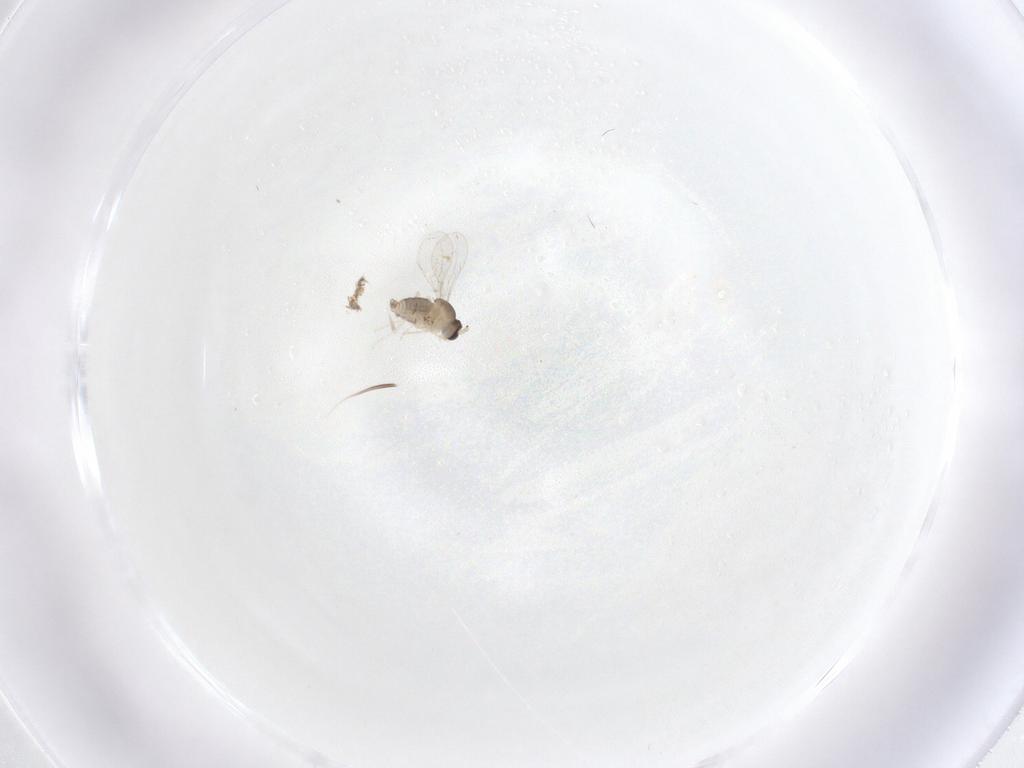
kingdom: Animalia
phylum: Arthropoda
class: Insecta
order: Diptera
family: Cecidomyiidae
